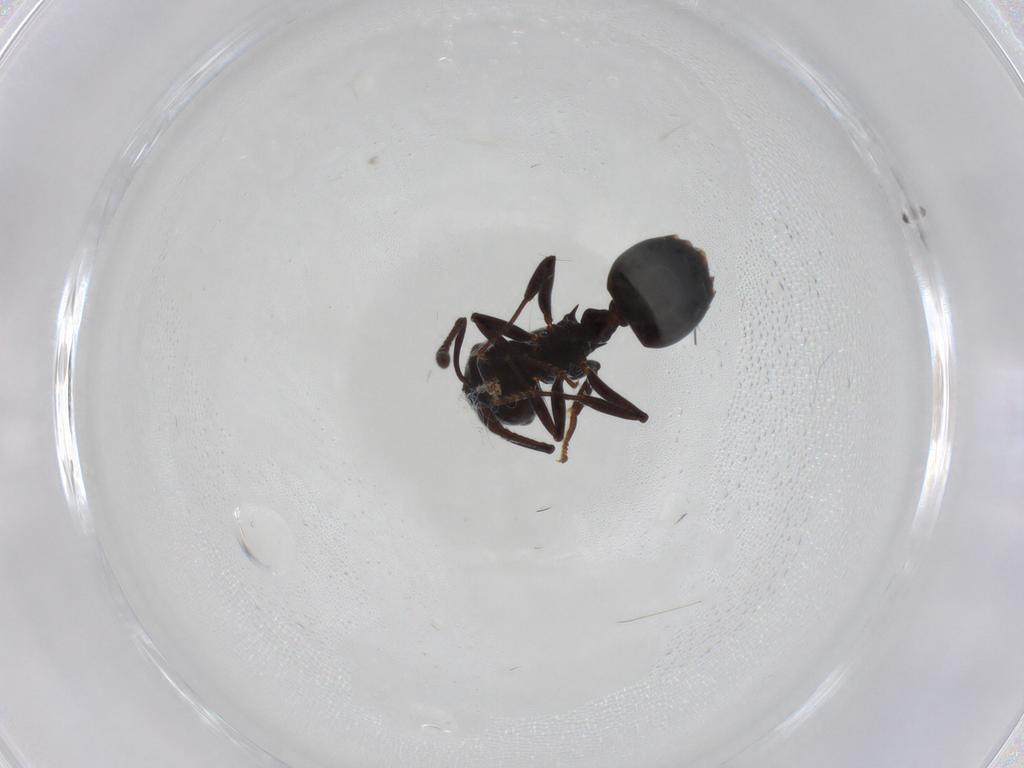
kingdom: Animalia
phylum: Arthropoda
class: Insecta
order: Hymenoptera
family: Formicidae
